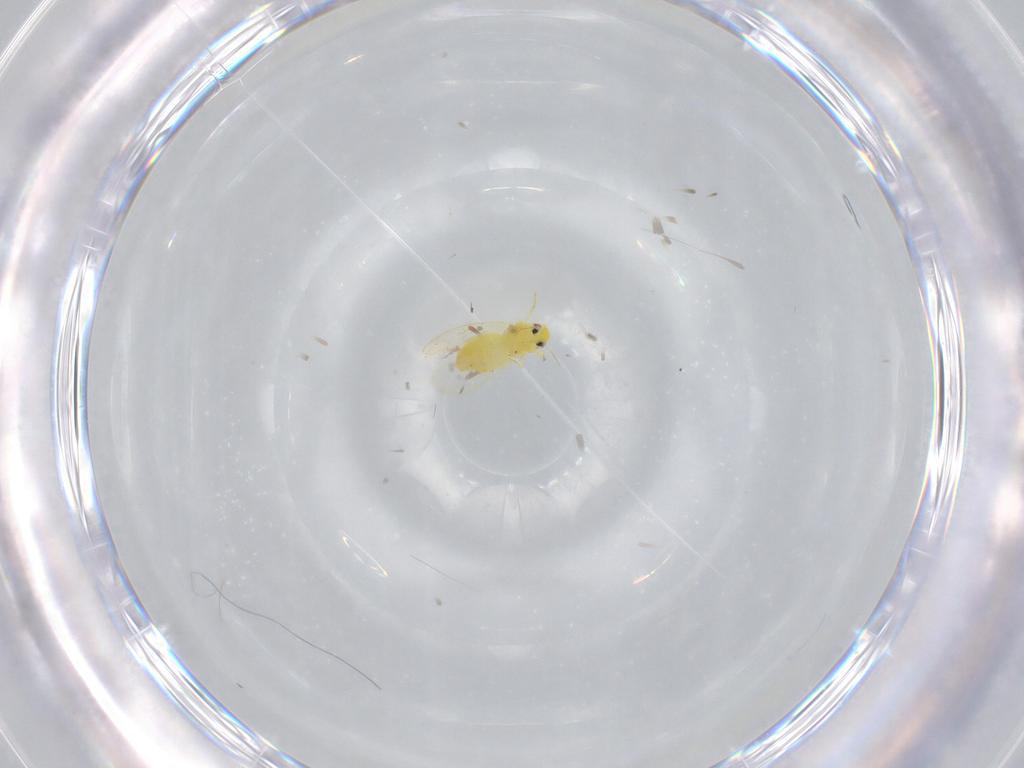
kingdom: Animalia
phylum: Arthropoda
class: Insecta
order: Hemiptera
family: Aleyrodidae
